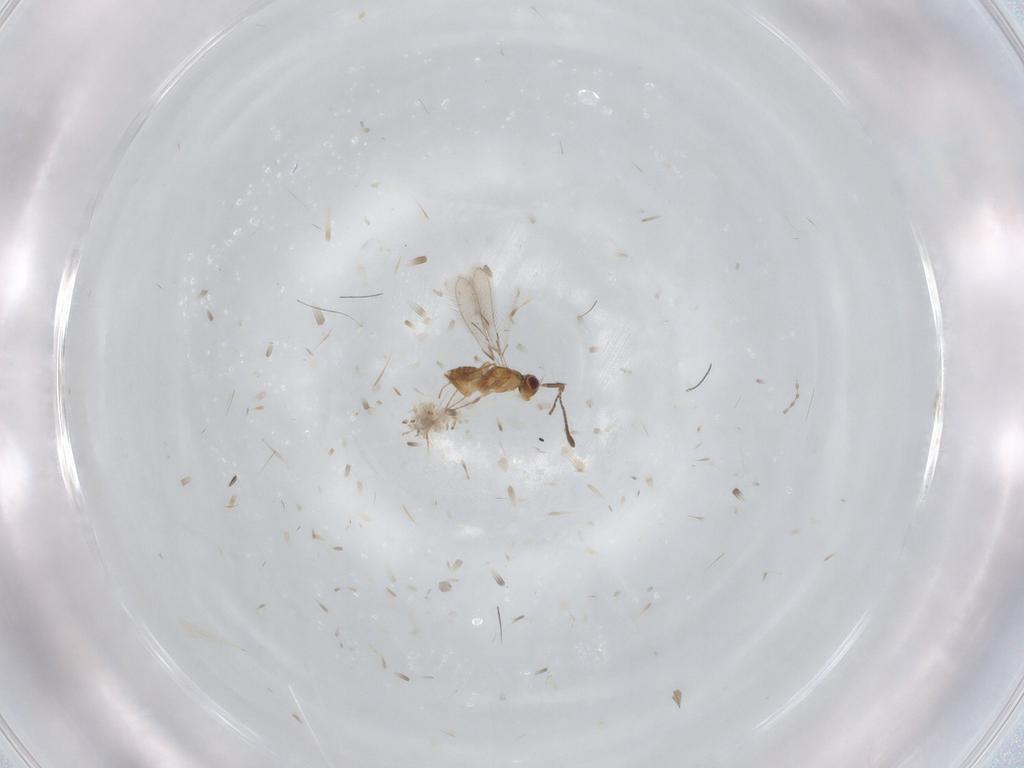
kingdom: Animalia
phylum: Arthropoda
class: Insecta
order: Hymenoptera
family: Mymaridae
